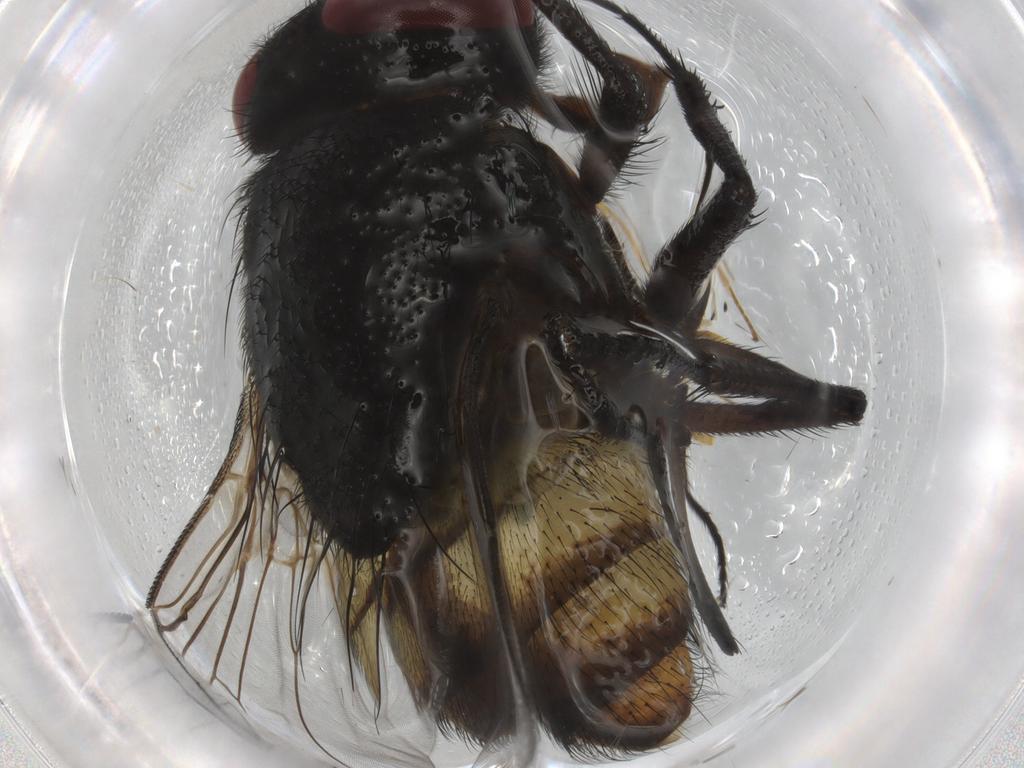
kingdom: Animalia
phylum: Arthropoda
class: Insecta
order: Diptera
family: Muscidae
